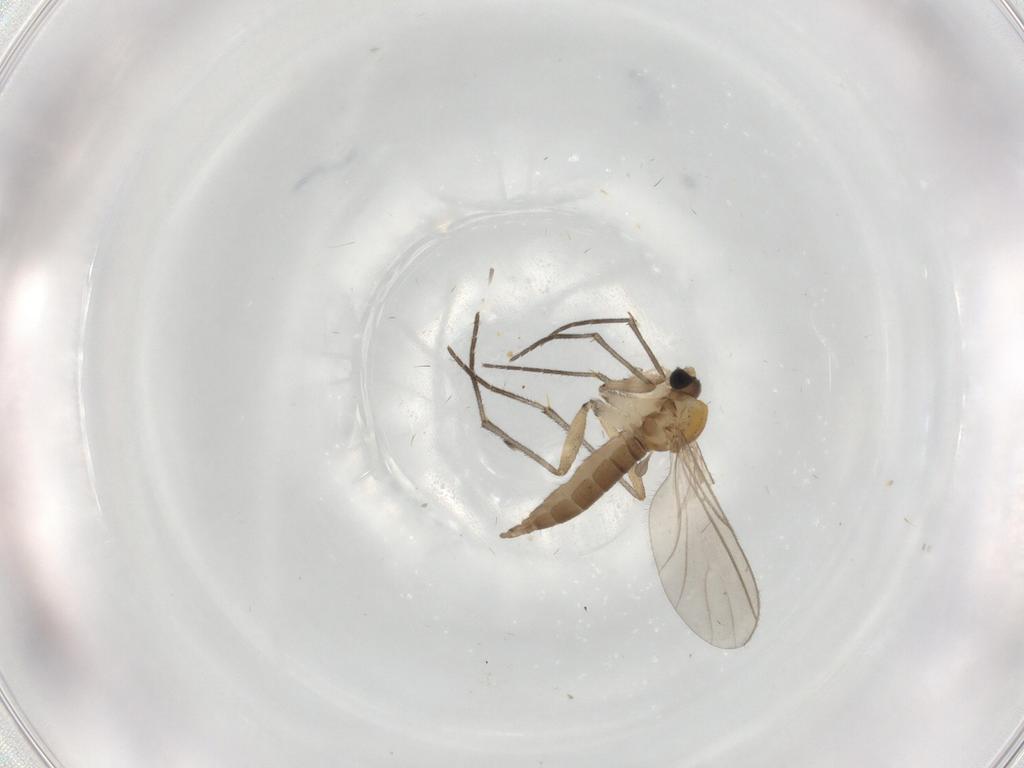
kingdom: Animalia
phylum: Arthropoda
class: Insecta
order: Diptera
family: Sciaridae
